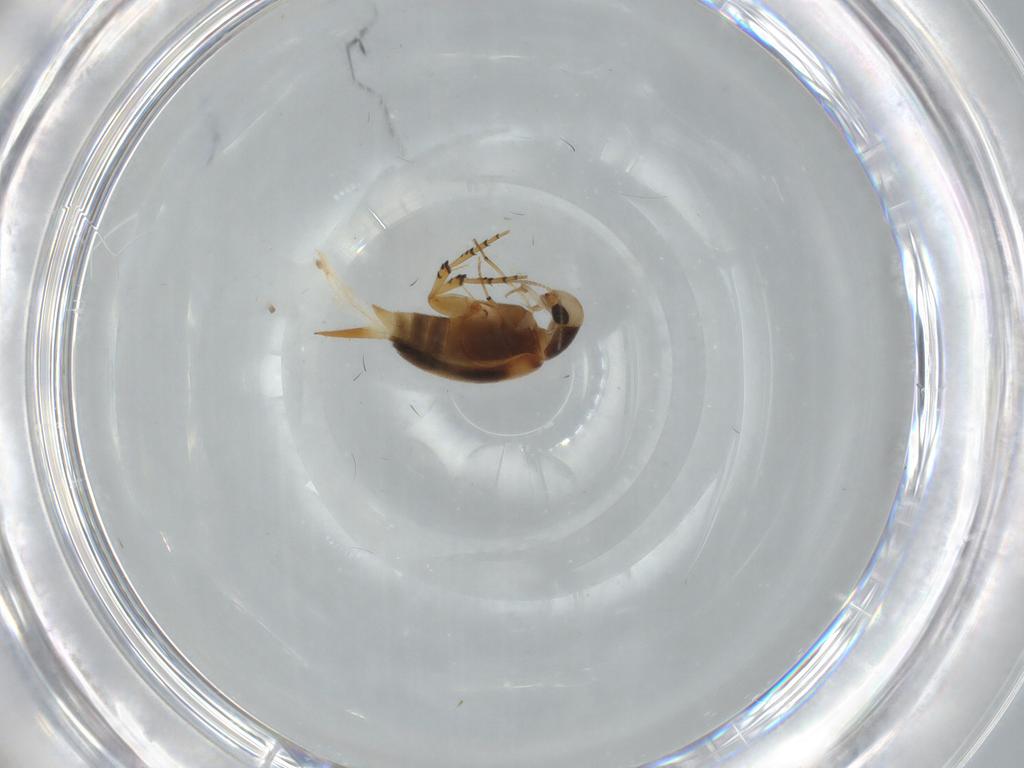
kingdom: Animalia
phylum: Arthropoda
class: Insecta
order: Coleoptera
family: Mordellidae
